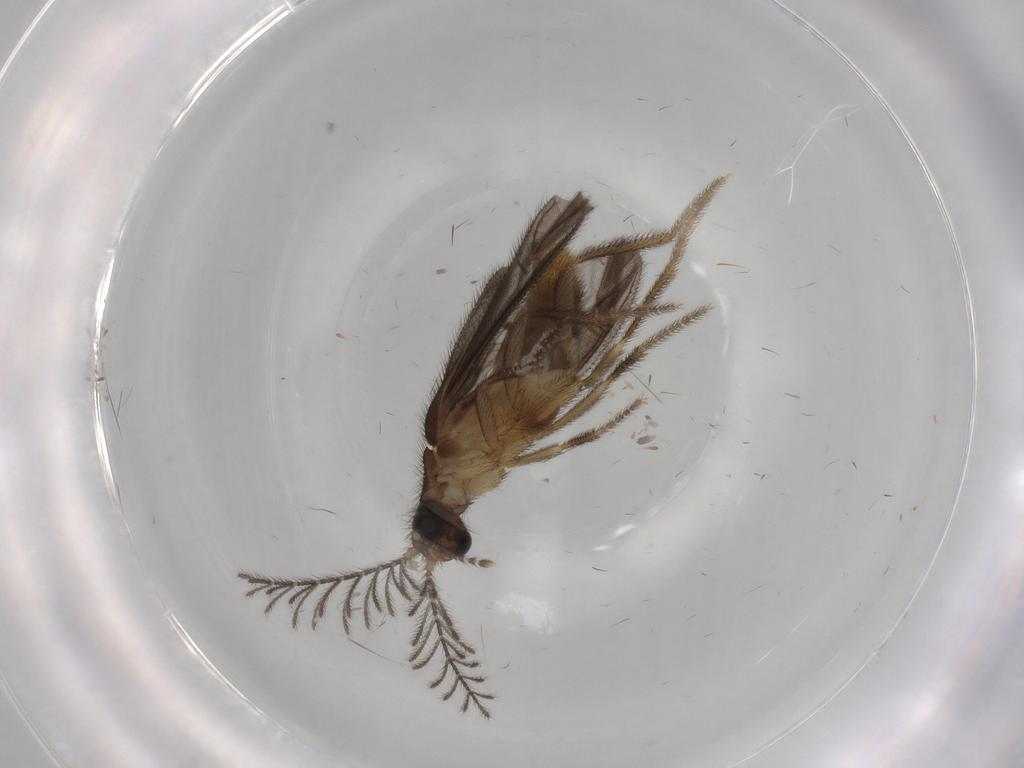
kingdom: Animalia
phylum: Arthropoda
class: Insecta
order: Coleoptera
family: Phengodidae
